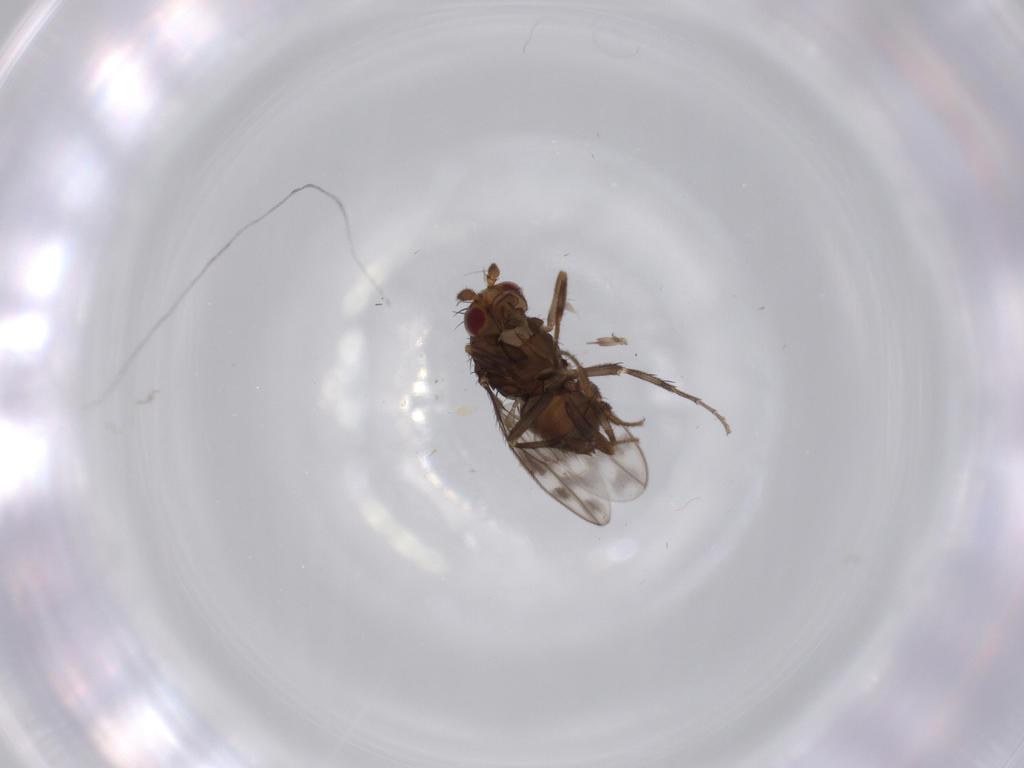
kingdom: Animalia
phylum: Arthropoda
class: Insecta
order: Diptera
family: Sphaeroceridae
